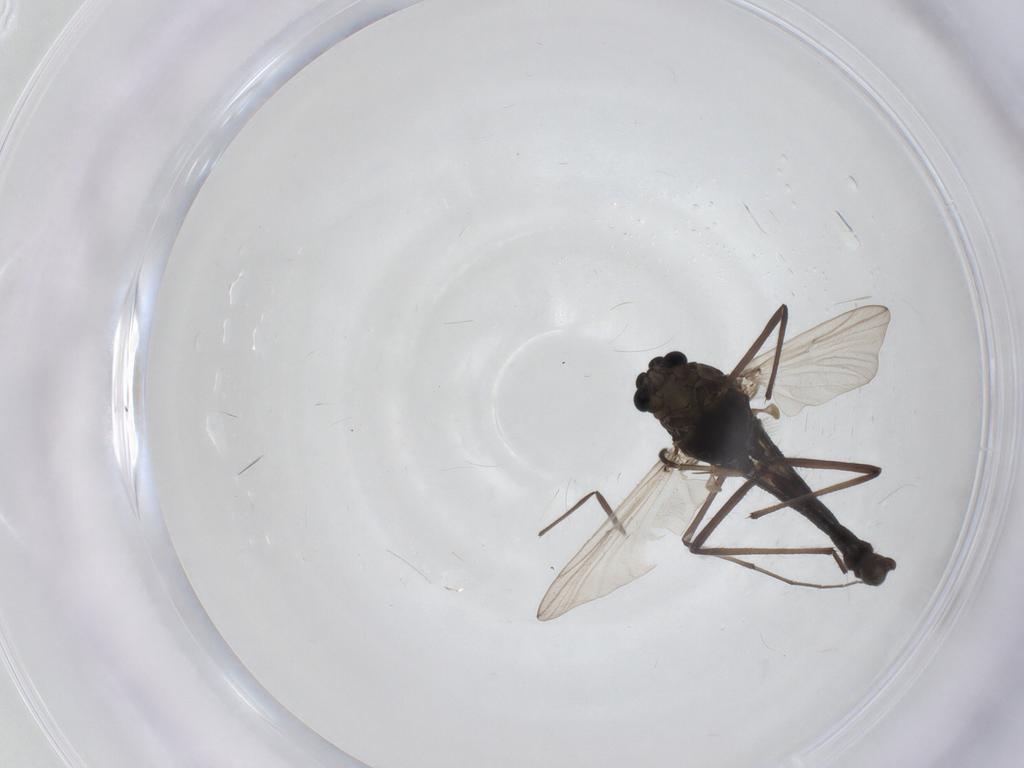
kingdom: Animalia
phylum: Arthropoda
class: Insecta
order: Diptera
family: Chironomidae
